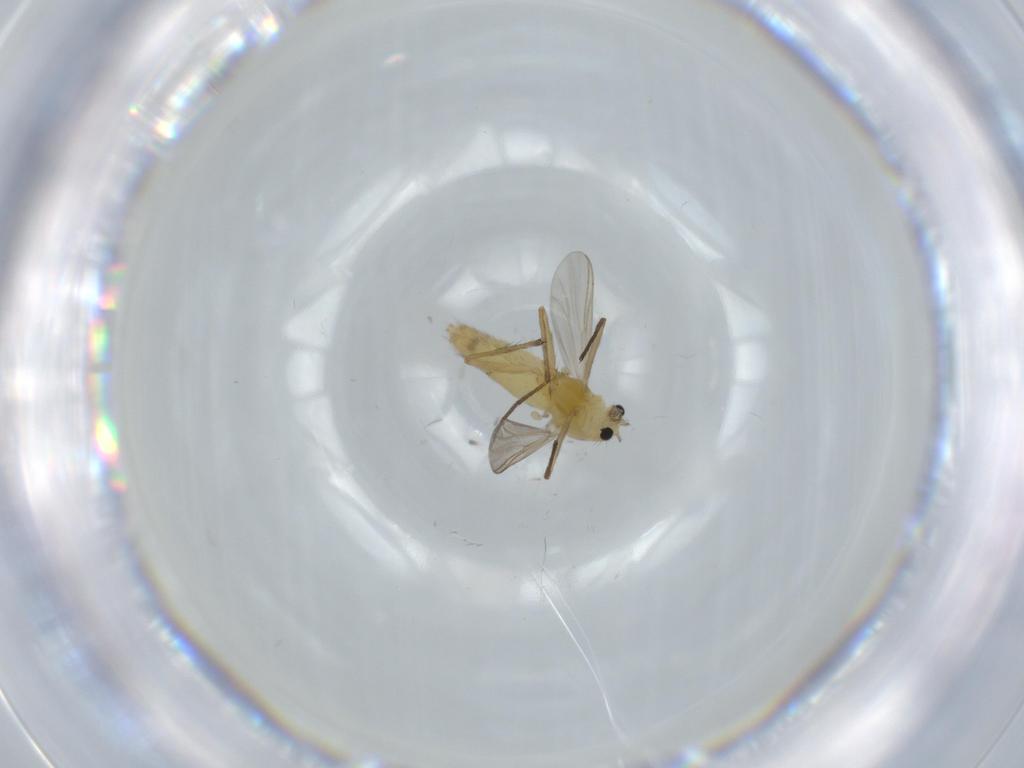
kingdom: Animalia
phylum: Arthropoda
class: Insecta
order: Diptera
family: Chironomidae
